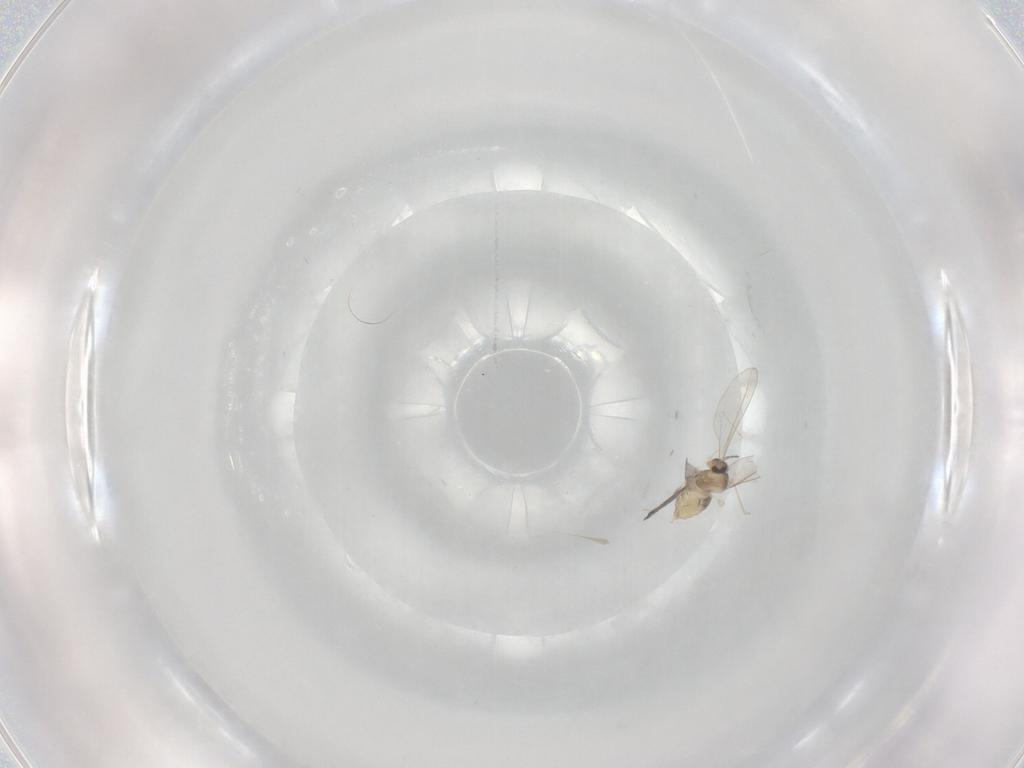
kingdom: Animalia
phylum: Arthropoda
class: Insecta
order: Diptera
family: Cecidomyiidae
